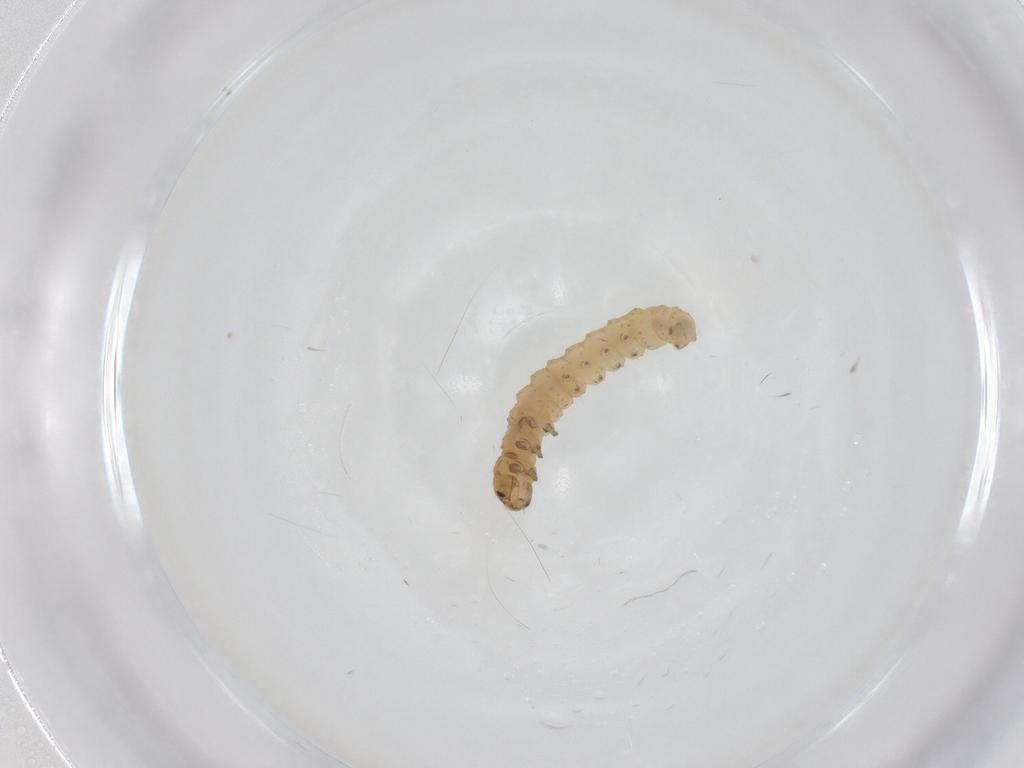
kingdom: Animalia
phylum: Arthropoda
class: Insecta
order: Lepidoptera
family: Gelechiidae
